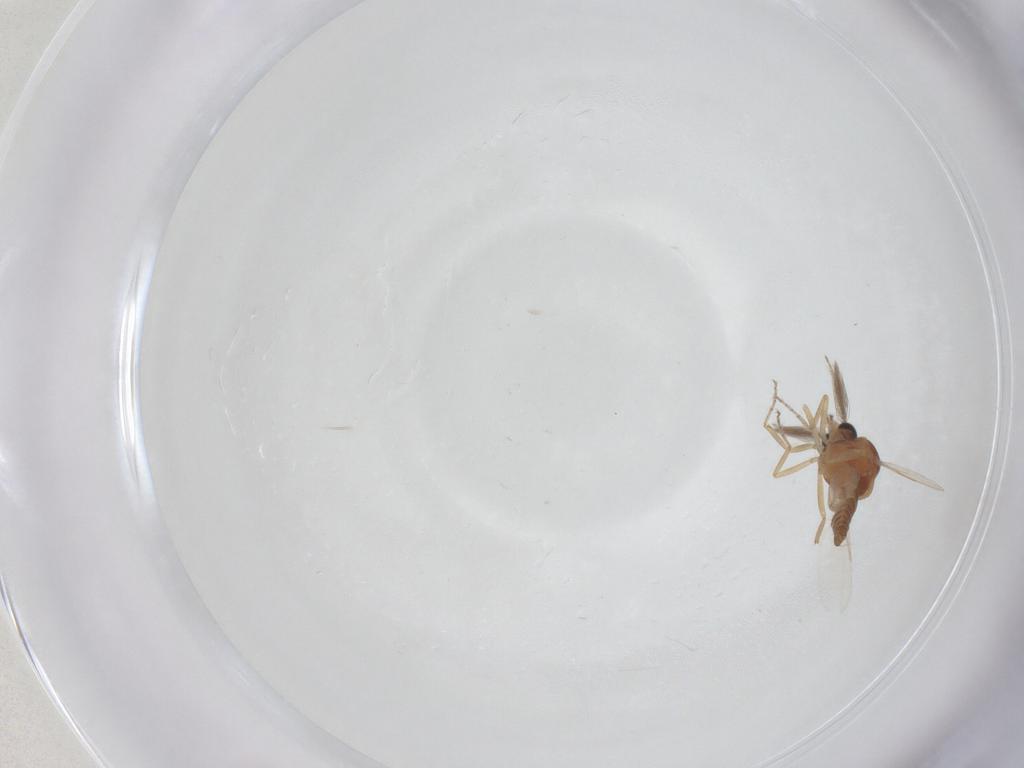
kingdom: Animalia
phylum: Arthropoda
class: Insecta
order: Diptera
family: Ceratopogonidae
